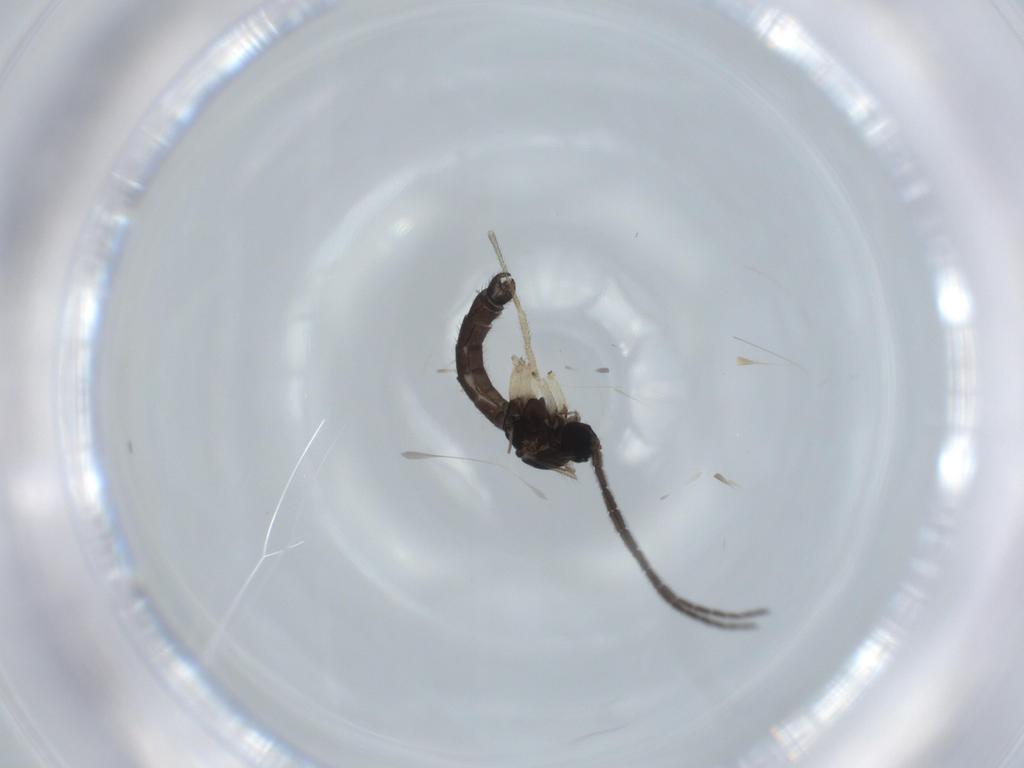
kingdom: Animalia
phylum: Arthropoda
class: Insecta
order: Diptera
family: Sciaridae
